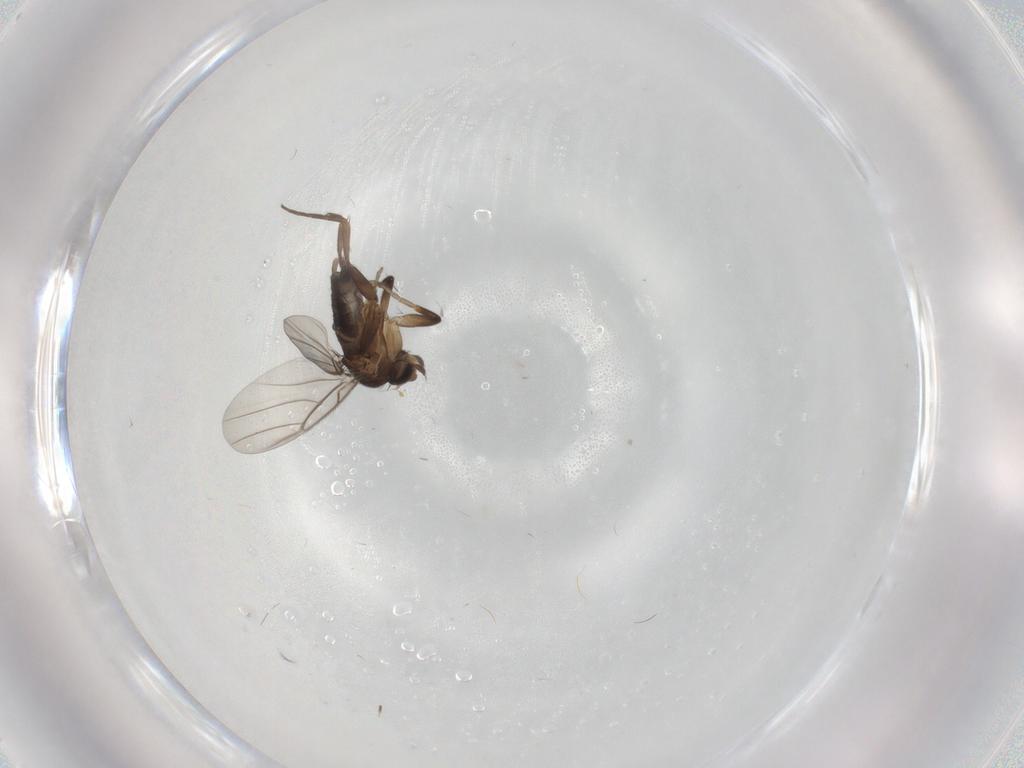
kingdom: Animalia
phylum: Arthropoda
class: Insecta
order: Diptera
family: Phoridae
